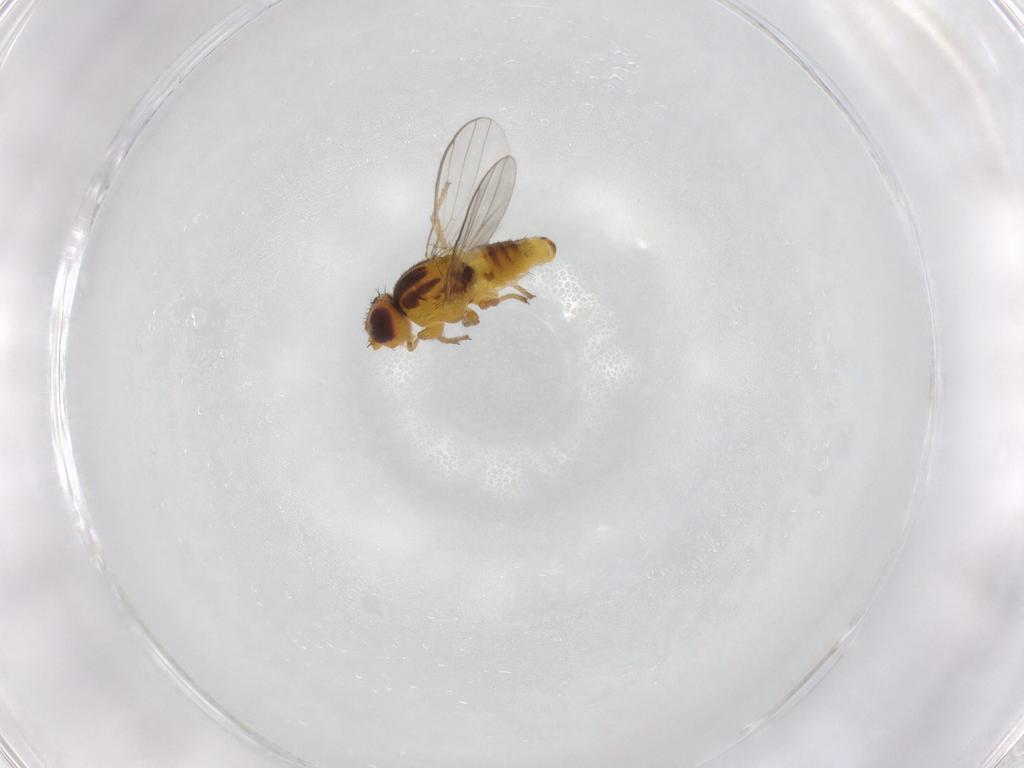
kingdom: Animalia
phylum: Arthropoda
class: Insecta
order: Diptera
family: Chloropidae
